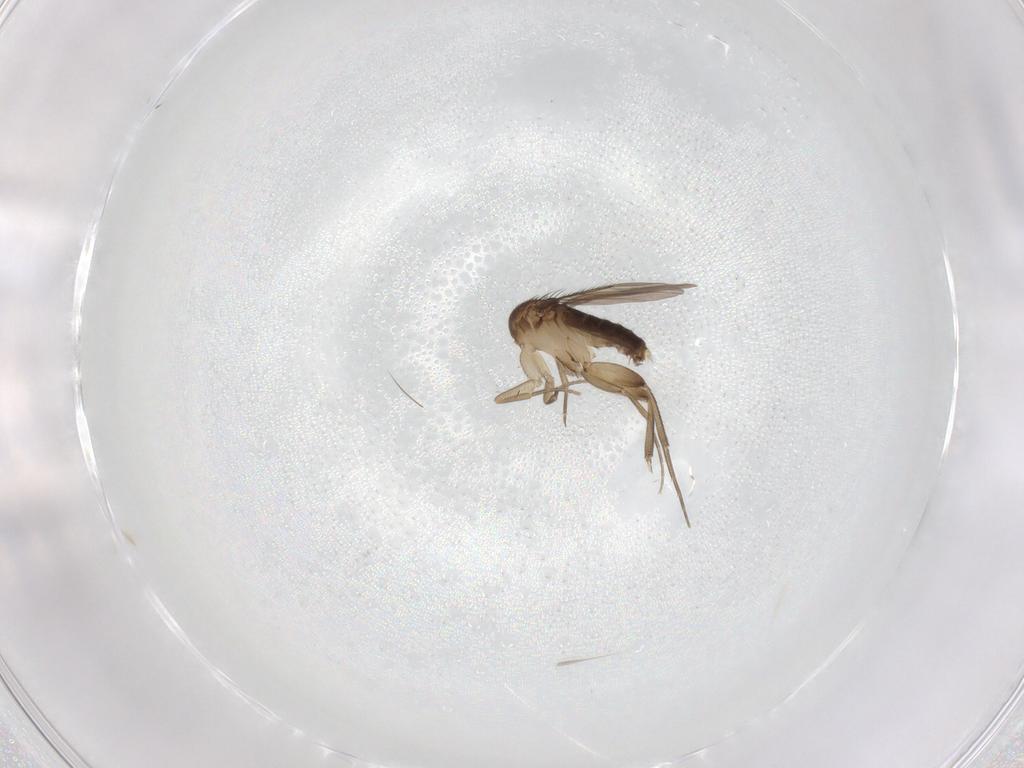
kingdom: Animalia
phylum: Arthropoda
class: Insecta
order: Diptera
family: Phoridae
